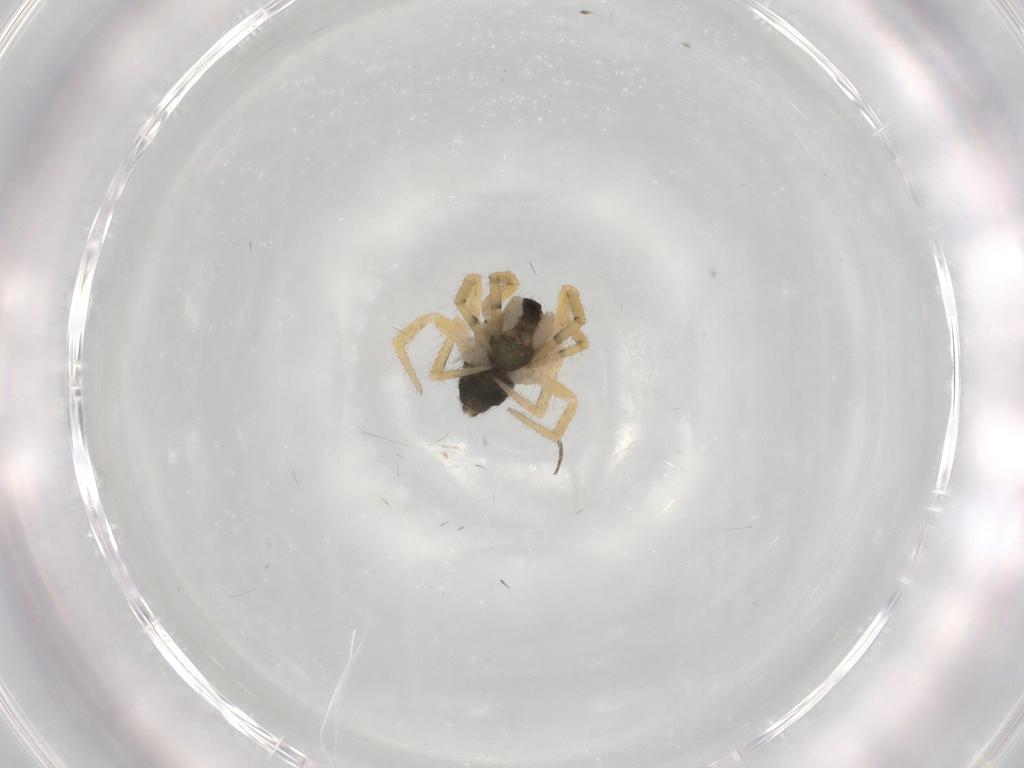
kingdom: Animalia
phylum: Arthropoda
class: Arachnida
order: Araneae
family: Theridiidae
